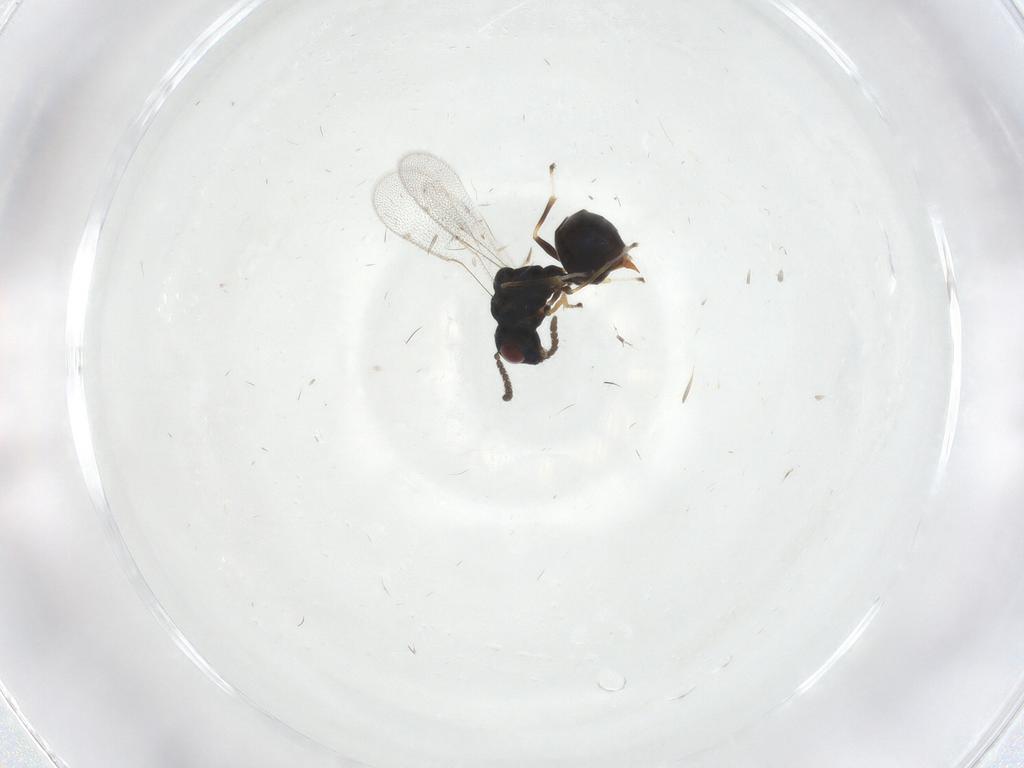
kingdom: Animalia
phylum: Arthropoda
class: Insecta
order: Hymenoptera
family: Eucharitidae
